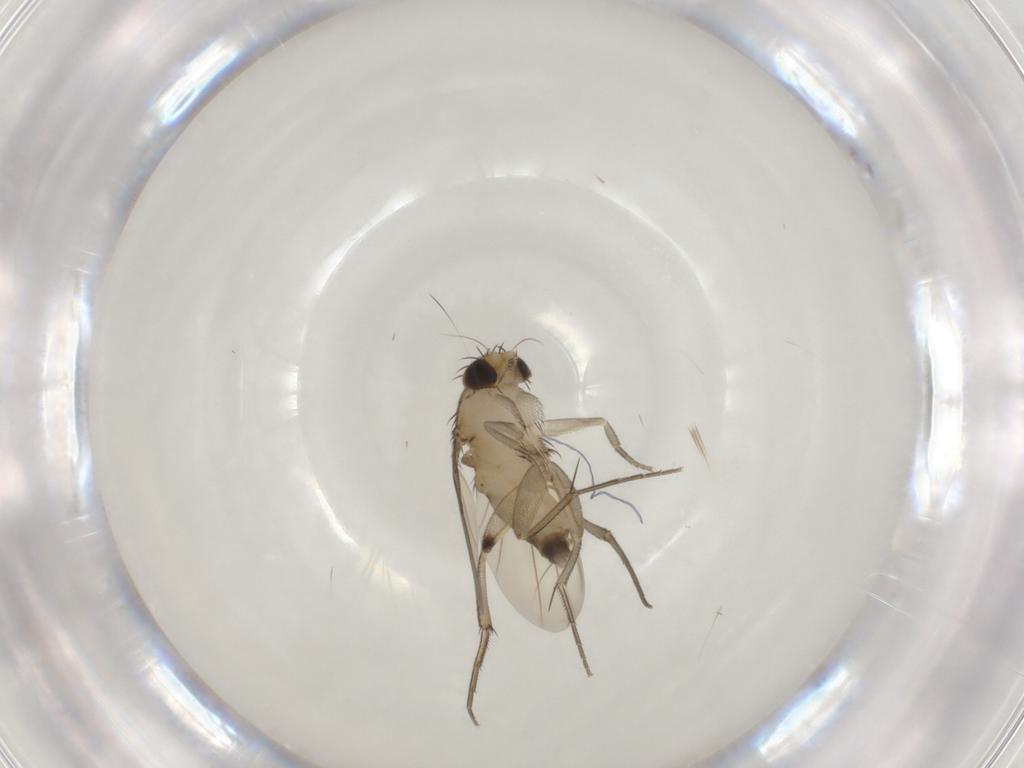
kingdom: Animalia
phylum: Arthropoda
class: Insecta
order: Diptera
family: Phoridae
